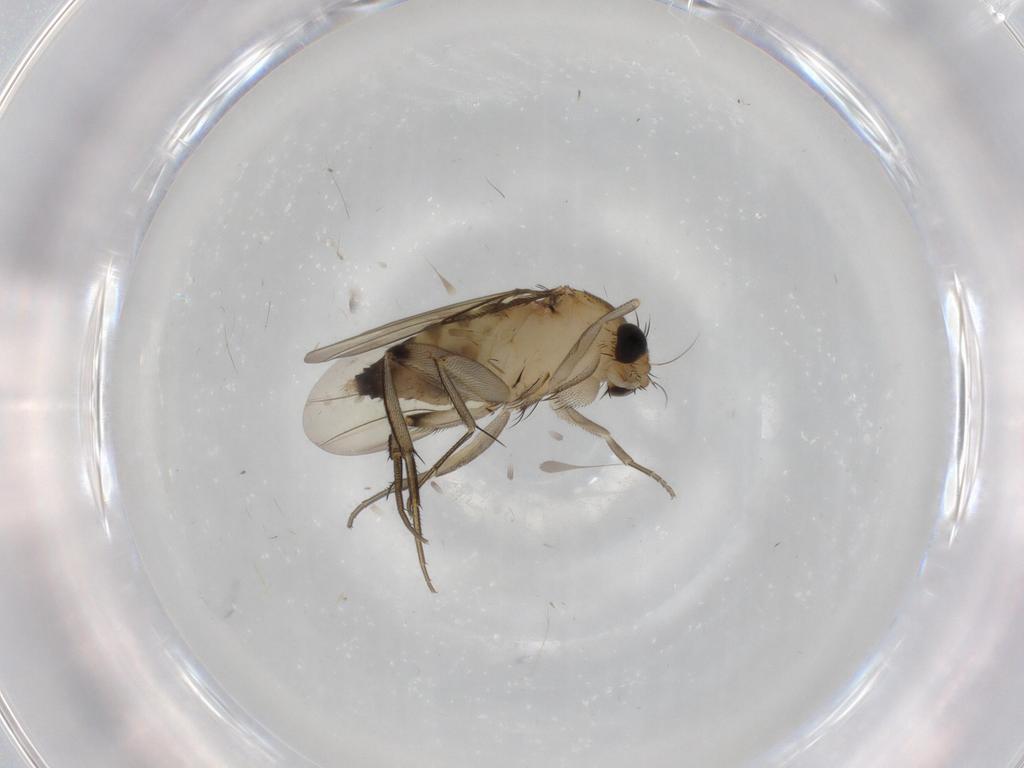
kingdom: Animalia
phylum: Arthropoda
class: Insecta
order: Diptera
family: Phoridae
